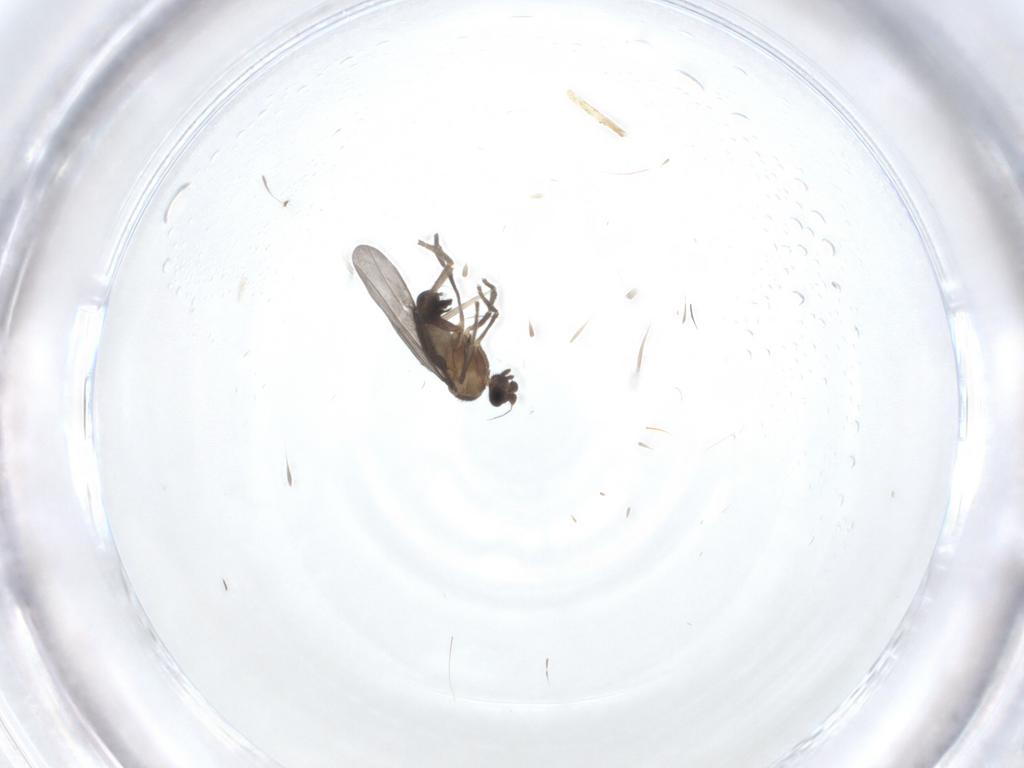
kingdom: Animalia
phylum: Arthropoda
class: Insecta
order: Diptera
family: Phoridae
